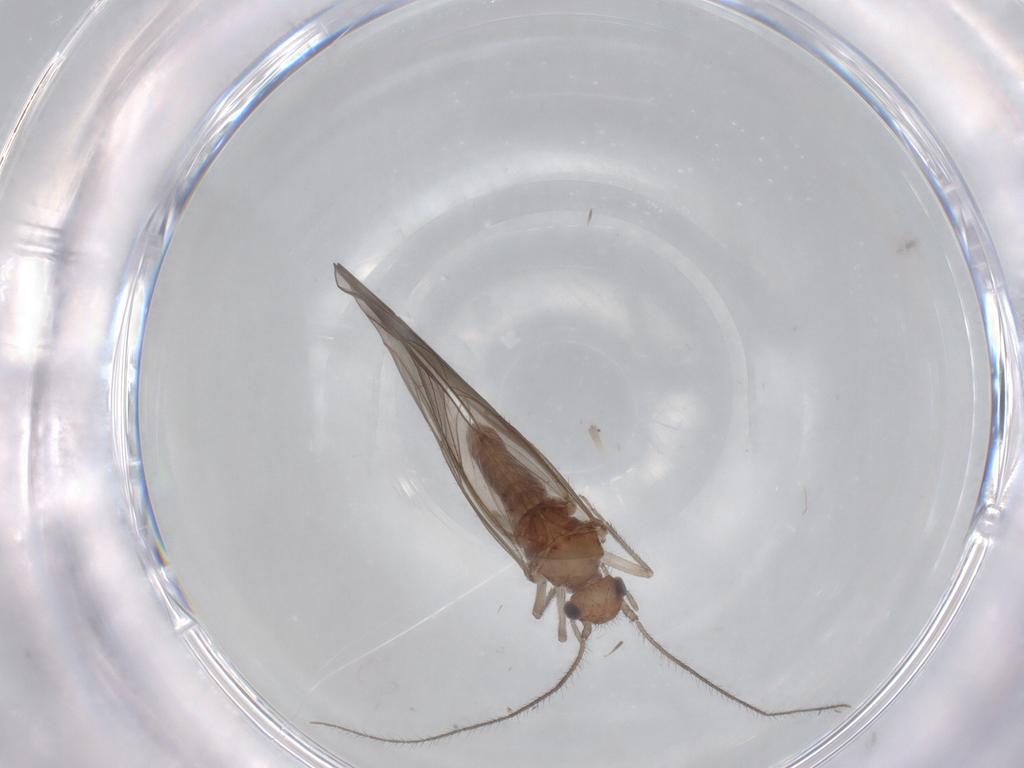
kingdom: Animalia
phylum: Arthropoda
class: Insecta
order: Psocodea
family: Caeciliusidae
